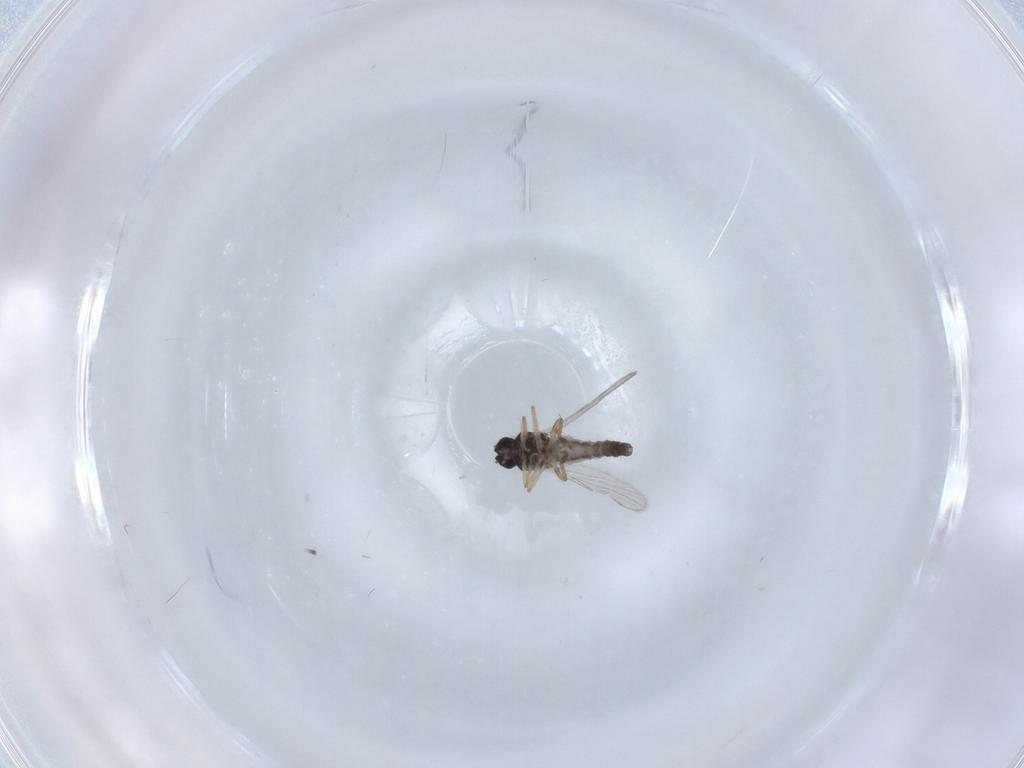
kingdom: Animalia
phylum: Arthropoda
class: Insecta
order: Diptera
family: Ceratopogonidae
